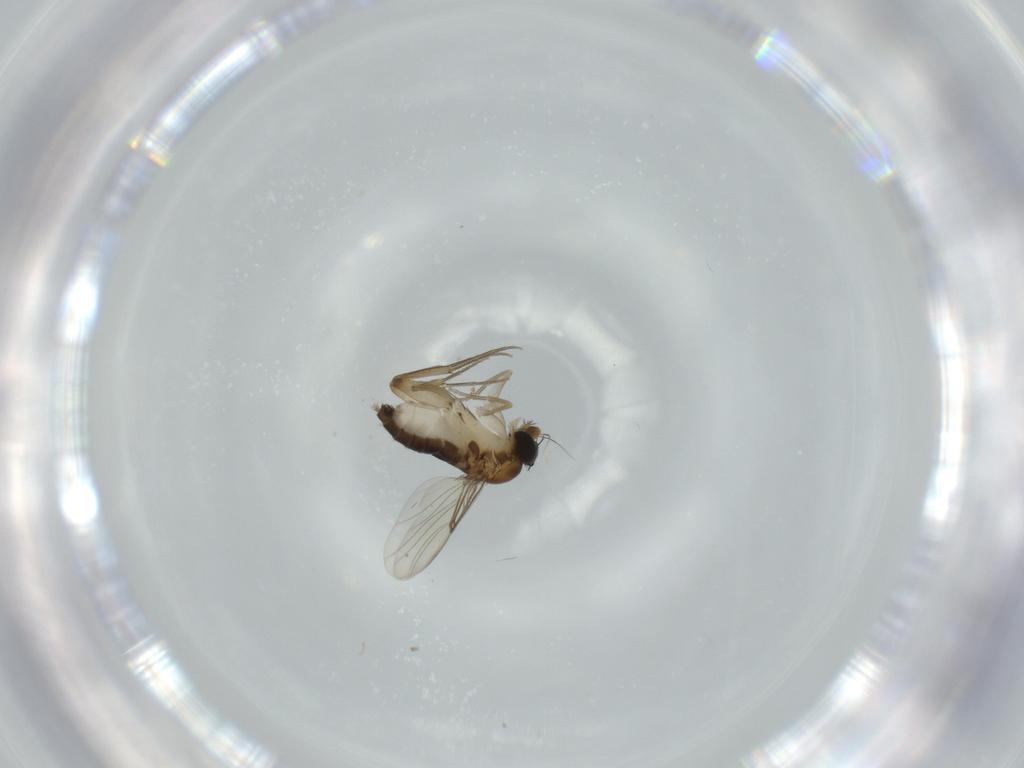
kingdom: Animalia
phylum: Arthropoda
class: Insecta
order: Diptera
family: Phoridae
